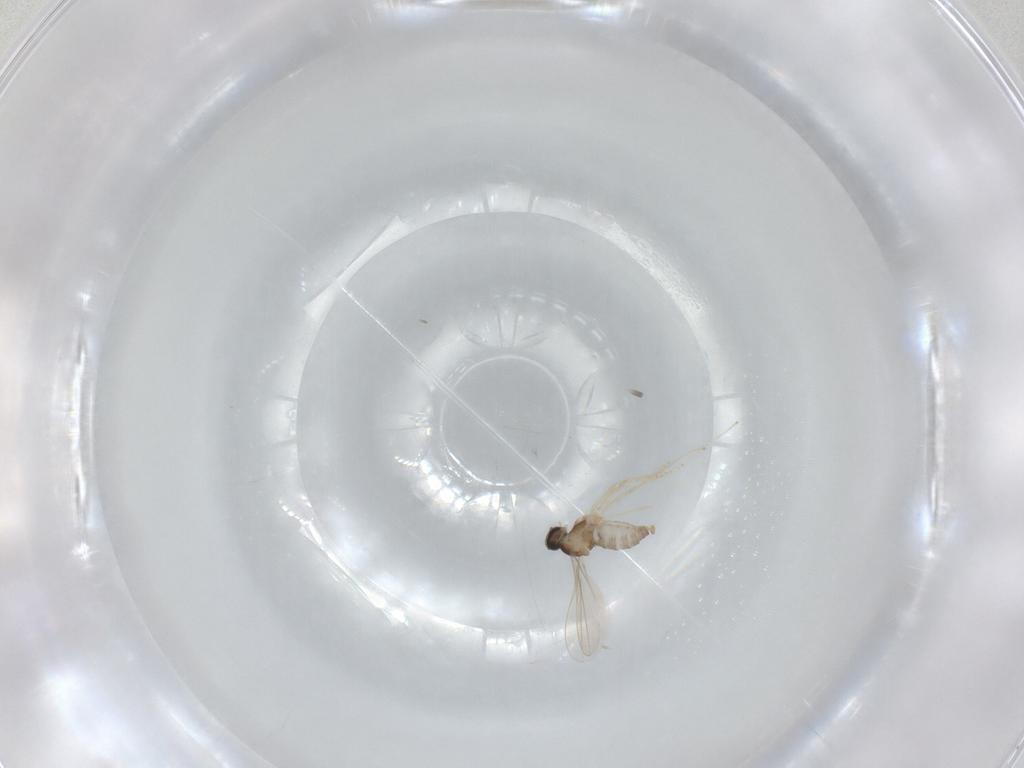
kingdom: Animalia
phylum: Arthropoda
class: Insecta
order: Diptera
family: Cecidomyiidae
